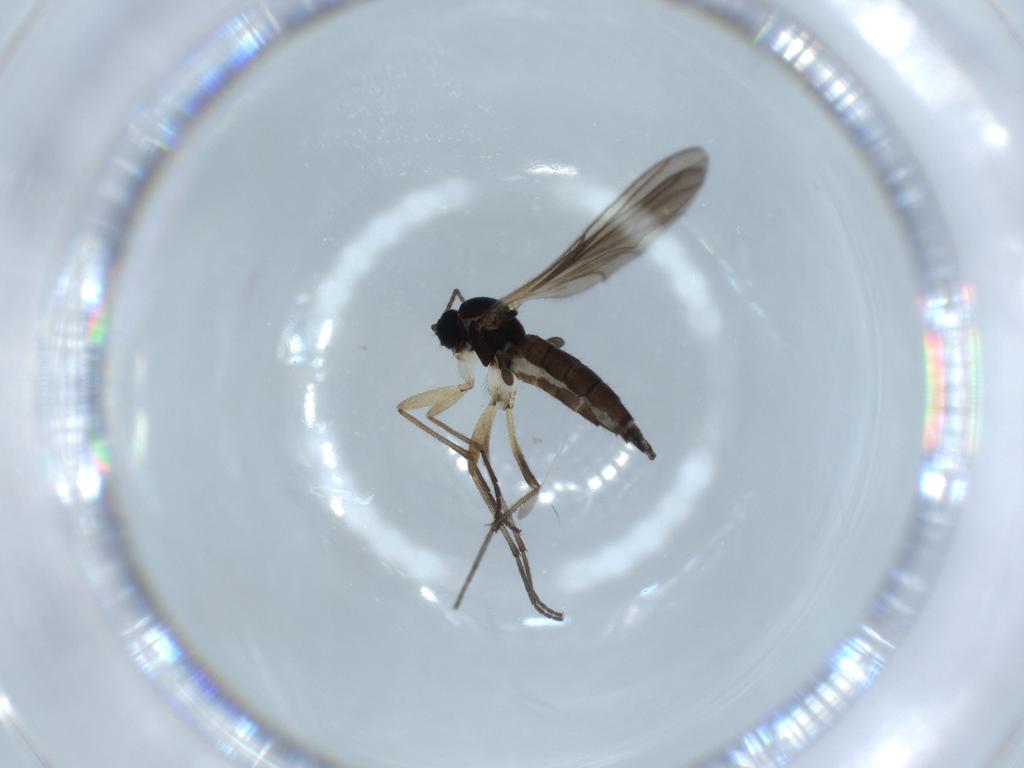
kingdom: Animalia
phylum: Arthropoda
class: Insecta
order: Diptera
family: Sciaridae
